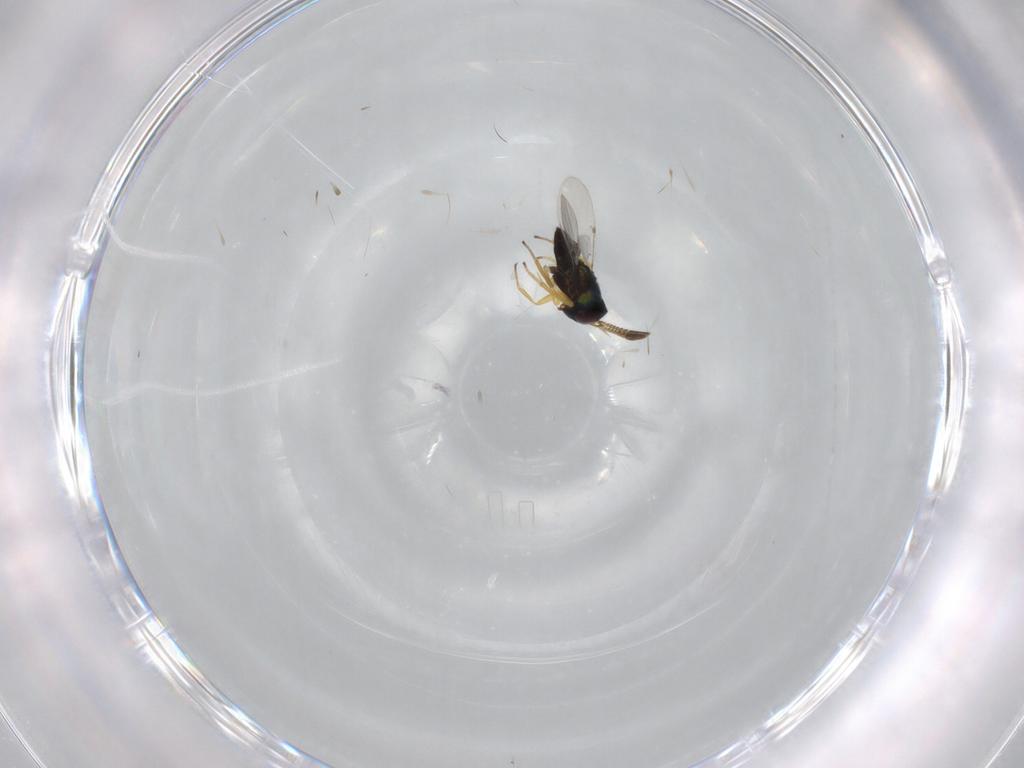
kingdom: Animalia
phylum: Arthropoda
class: Insecta
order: Hymenoptera
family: Encyrtidae
